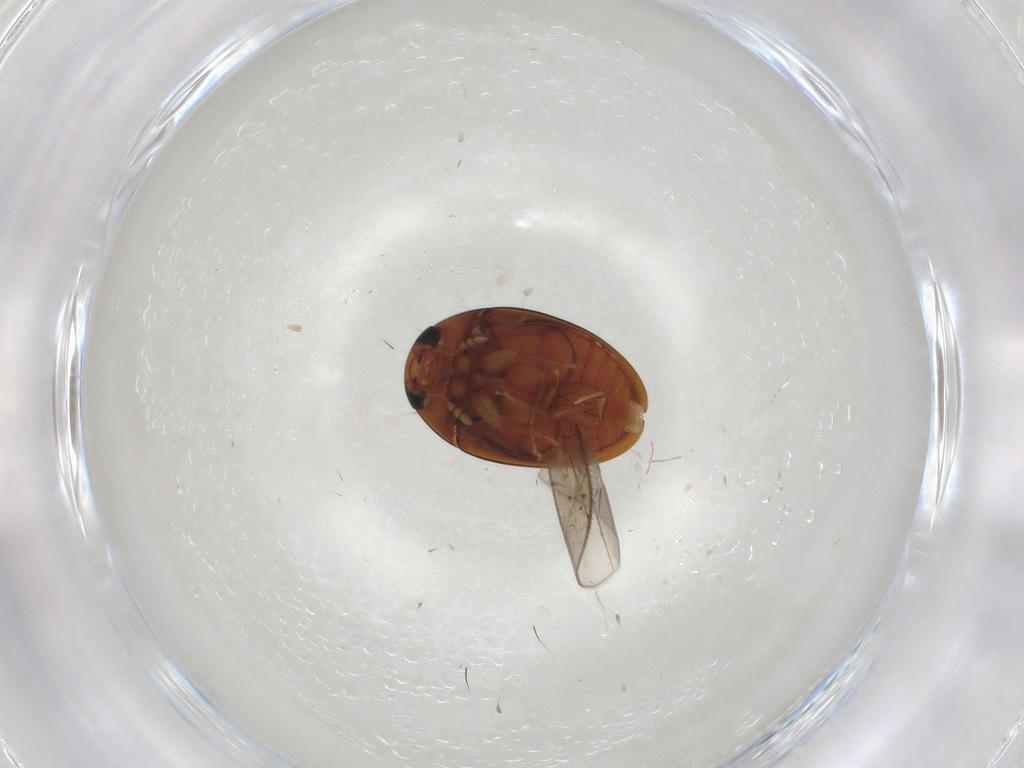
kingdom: Animalia
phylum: Arthropoda
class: Insecta
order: Coleoptera
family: Phalacridae
